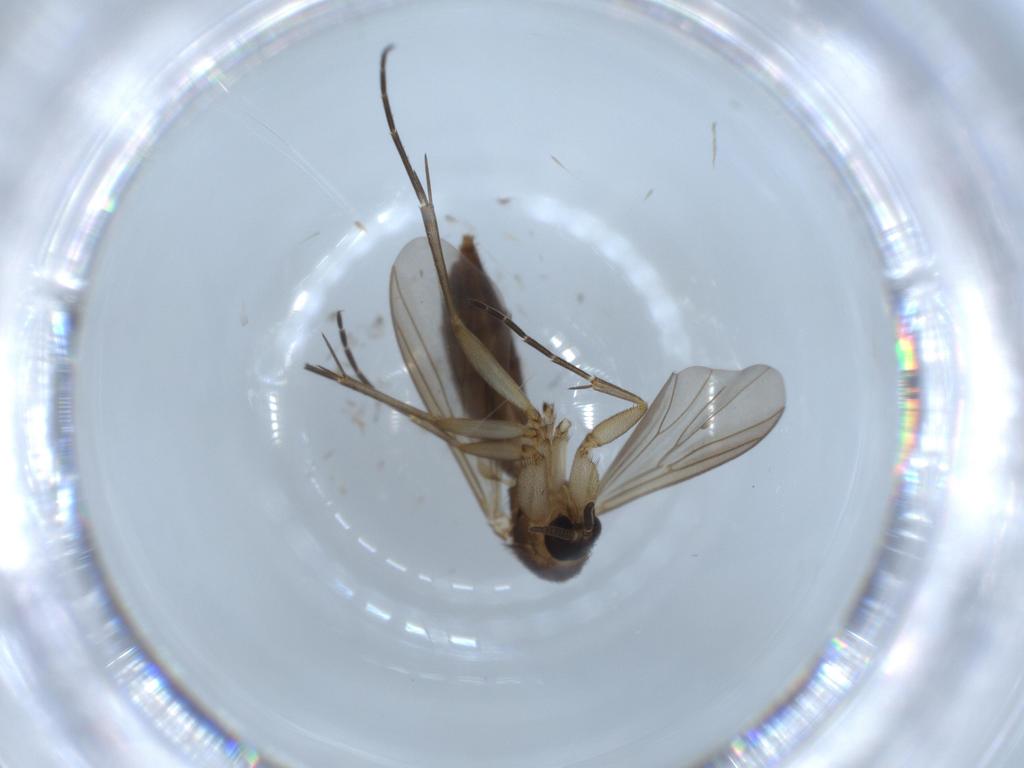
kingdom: Animalia
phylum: Arthropoda
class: Insecta
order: Diptera
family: Mycetophilidae
